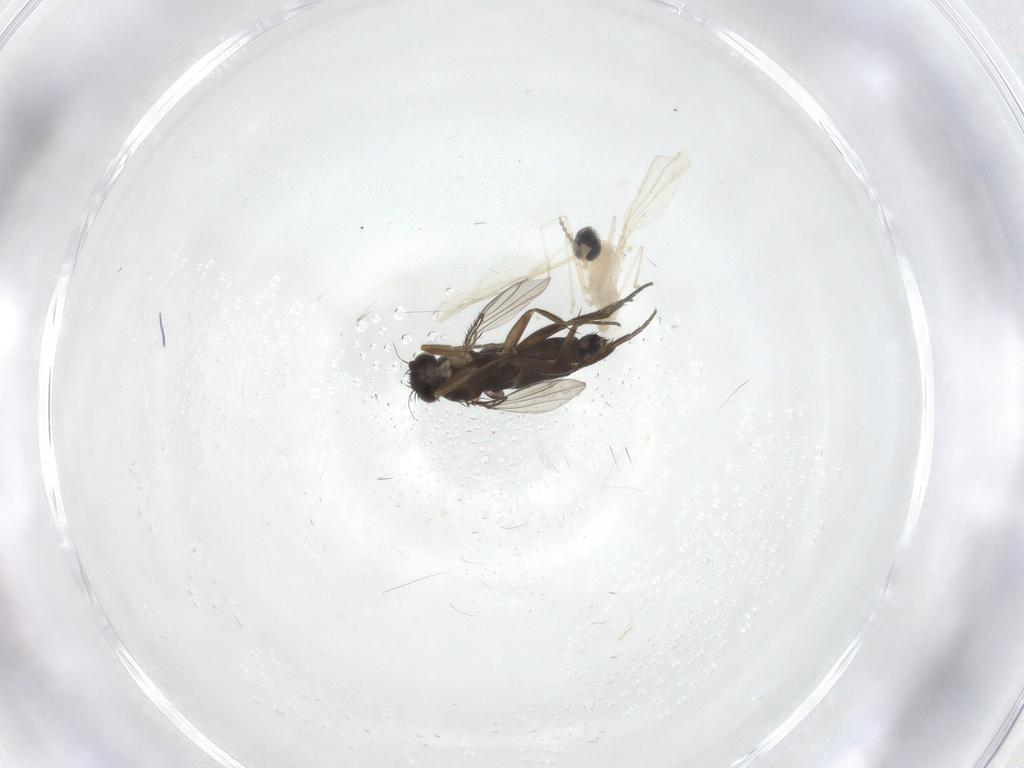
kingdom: Animalia
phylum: Arthropoda
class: Insecta
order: Diptera
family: Phoridae
